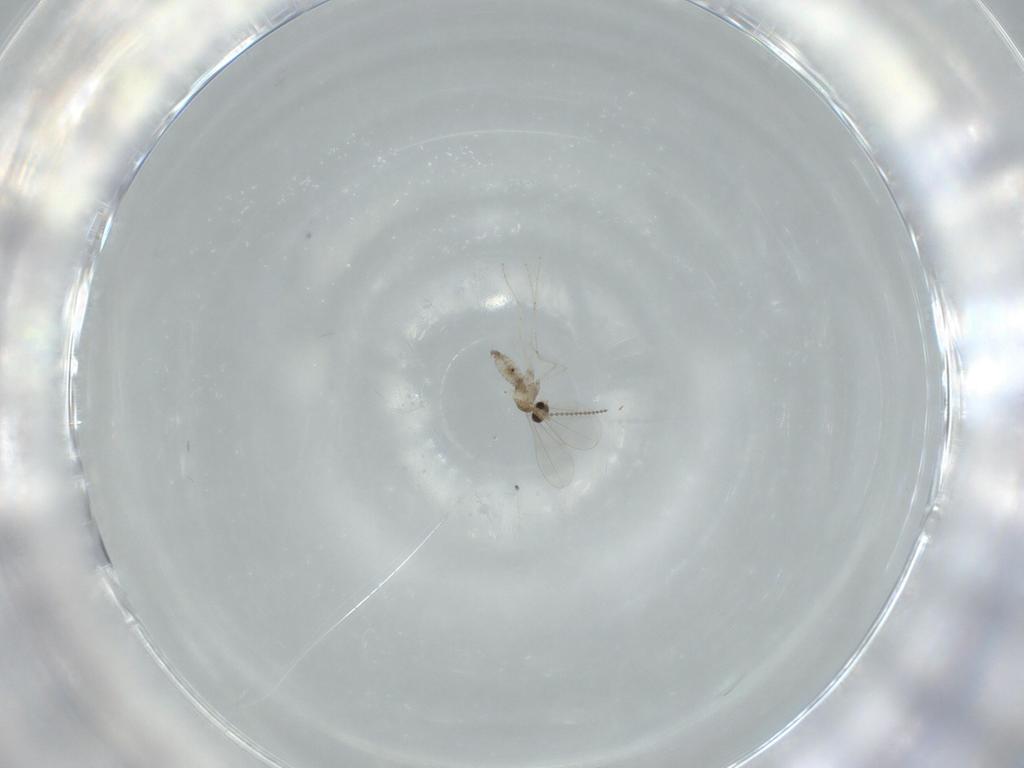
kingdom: Animalia
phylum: Arthropoda
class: Insecta
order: Diptera
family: Cecidomyiidae
